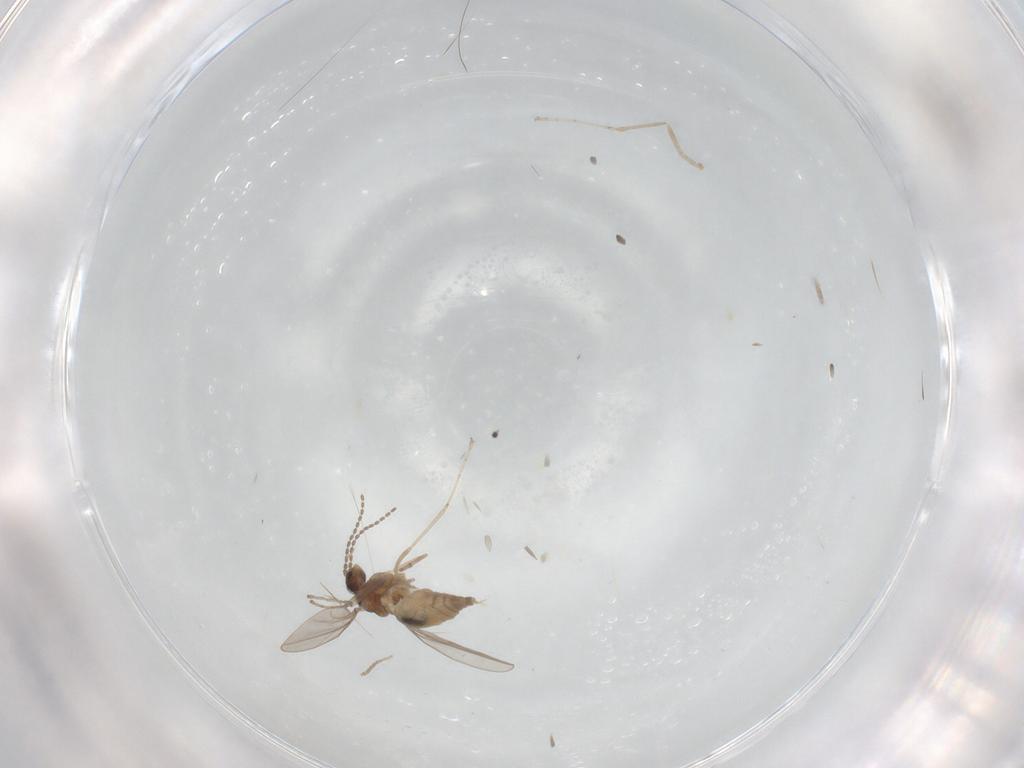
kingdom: Animalia
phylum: Arthropoda
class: Insecta
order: Diptera
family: Cecidomyiidae
